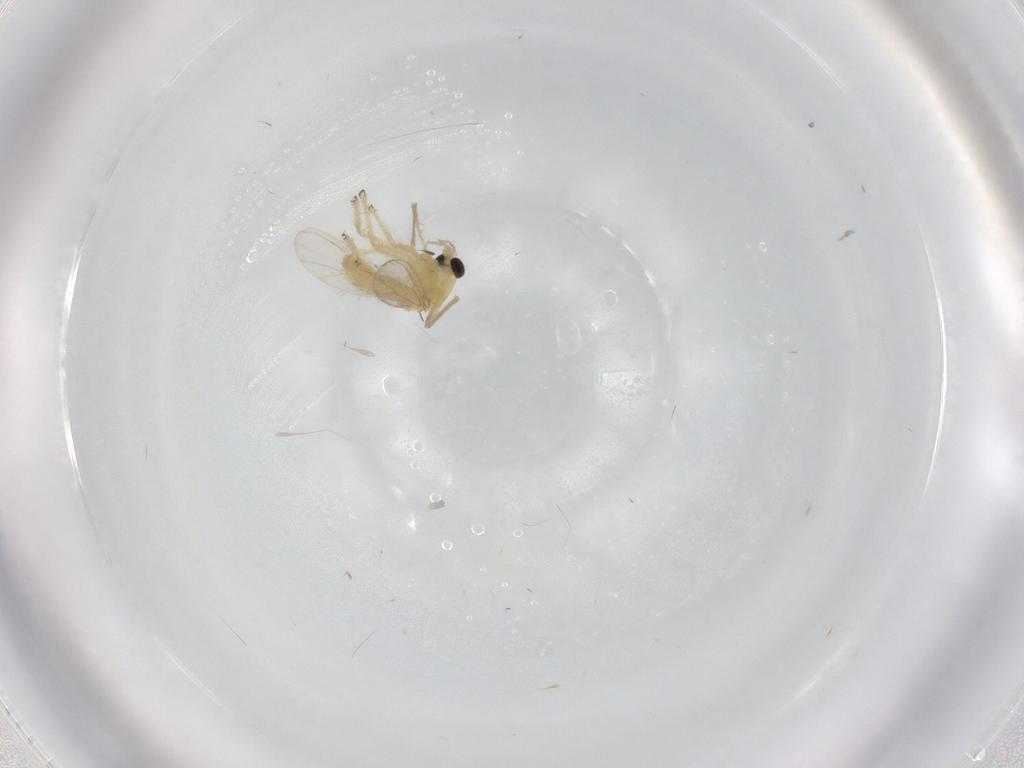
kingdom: Animalia
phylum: Arthropoda
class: Insecta
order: Diptera
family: Chironomidae
